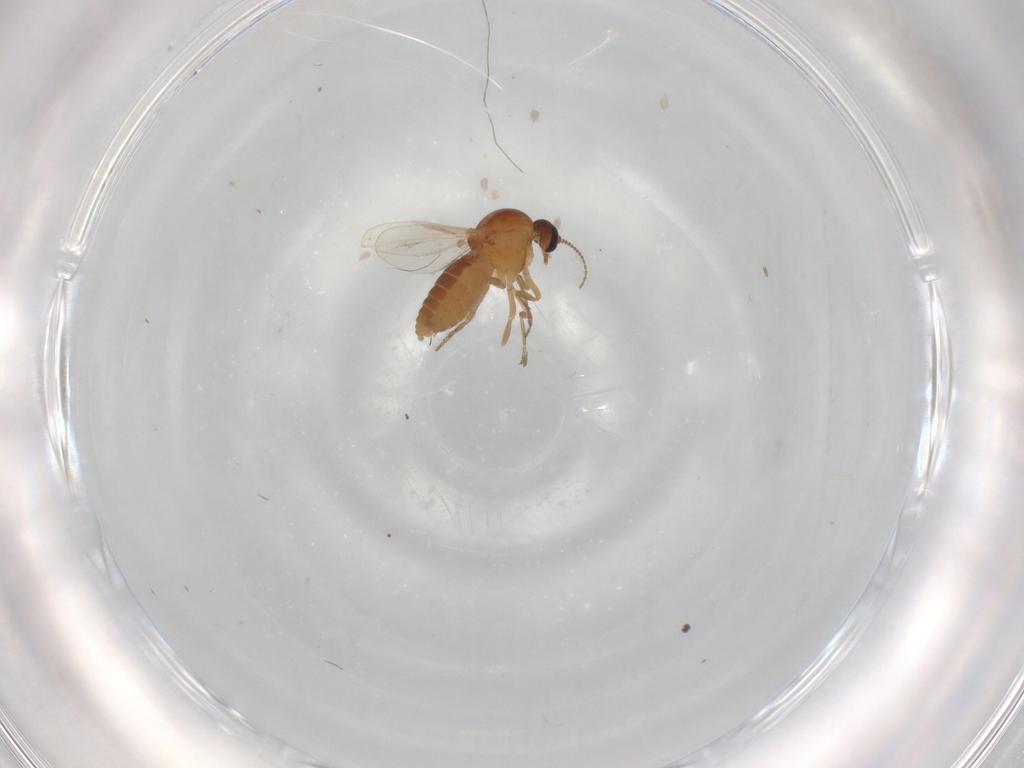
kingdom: Animalia
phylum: Arthropoda
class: Insecta
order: Diptera
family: Ceratopogonidae
